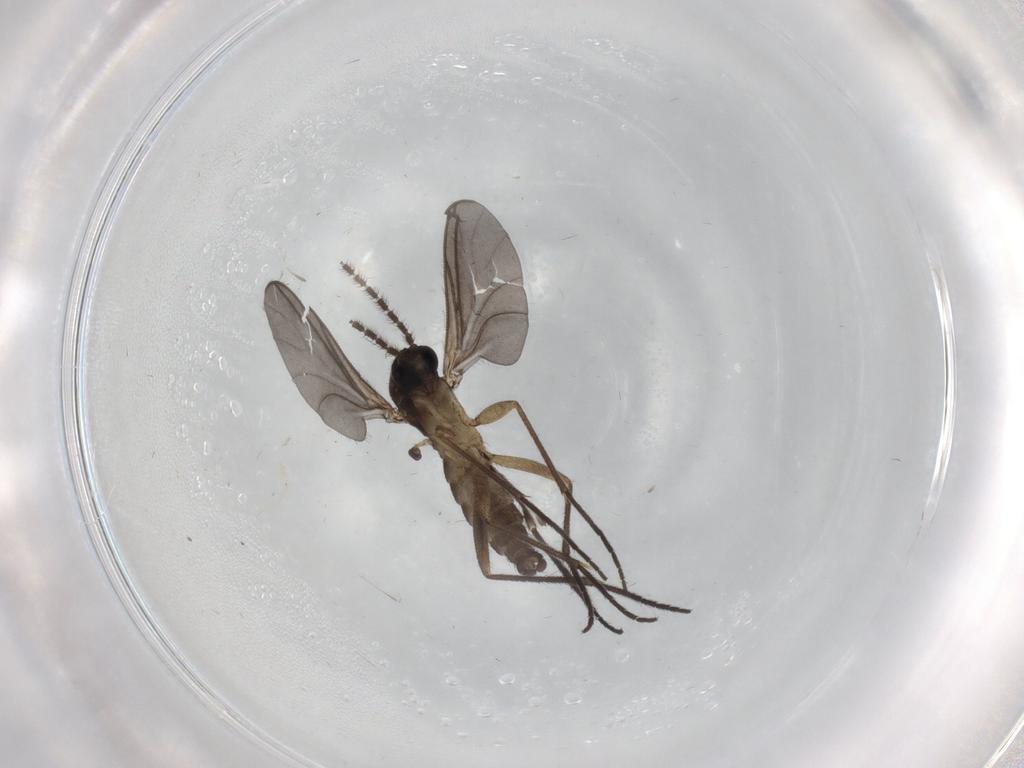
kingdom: Animalia
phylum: Arthropoda
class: Insecta
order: Diptera
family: Sciaridae
